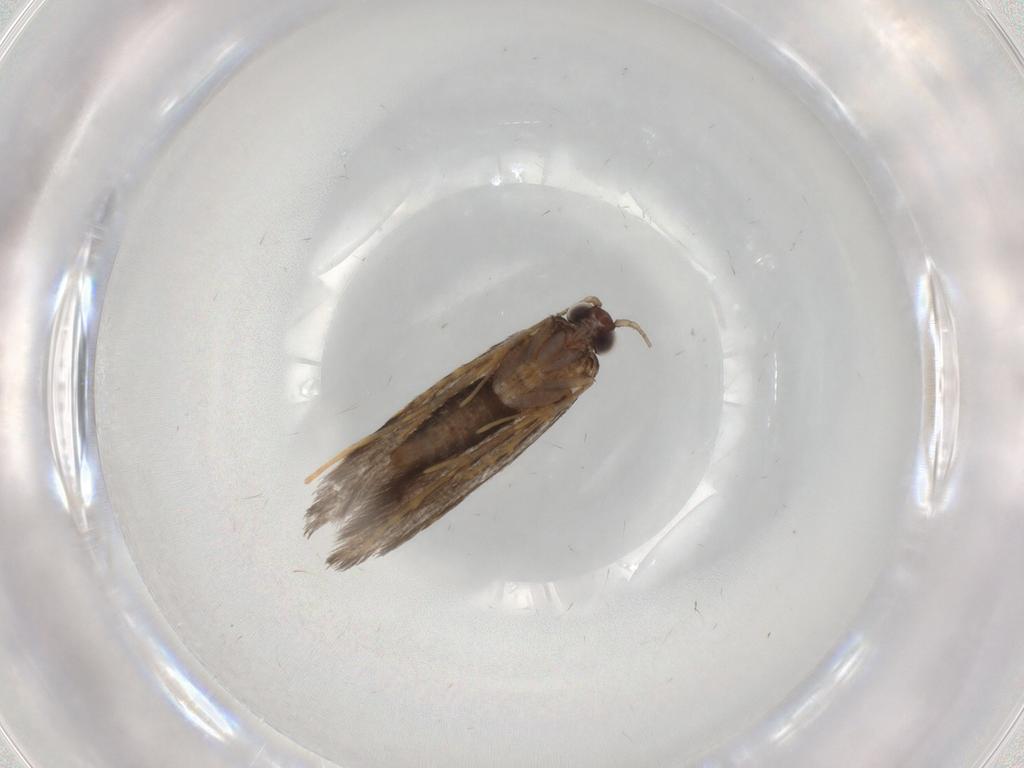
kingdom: Animalia
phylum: Arthropoda
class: Insecta
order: Lepidoptera
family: Tineidae
